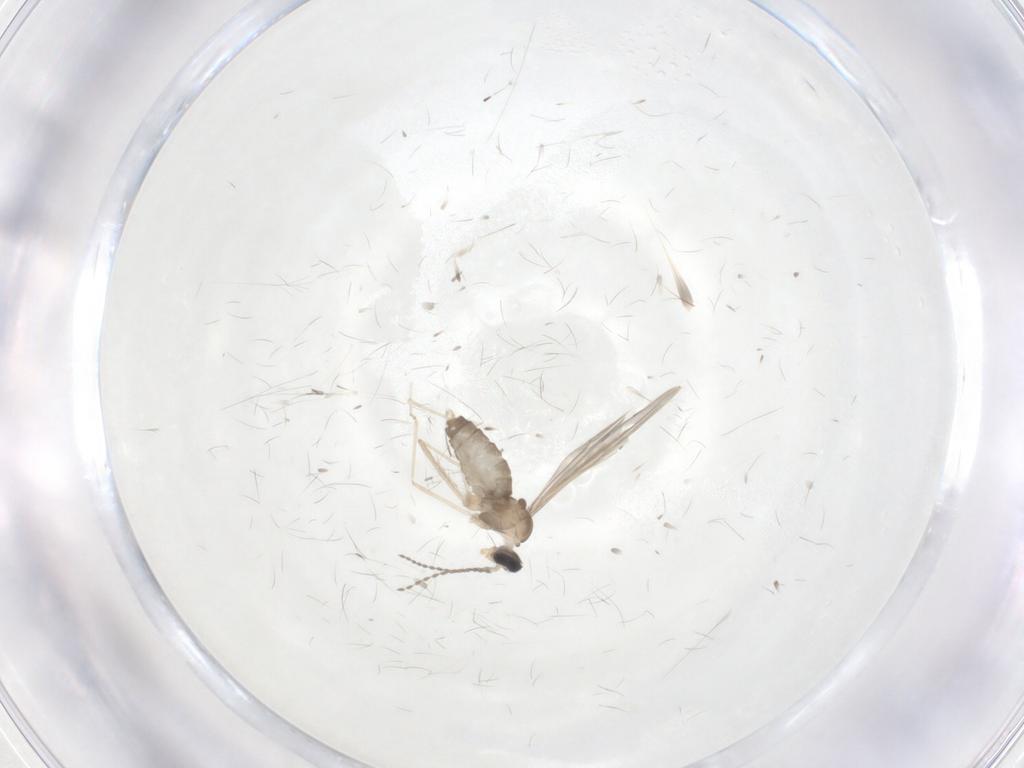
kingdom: Animalia
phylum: Arthropoda
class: Insecta
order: Diptera
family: Cecidomyiidae
